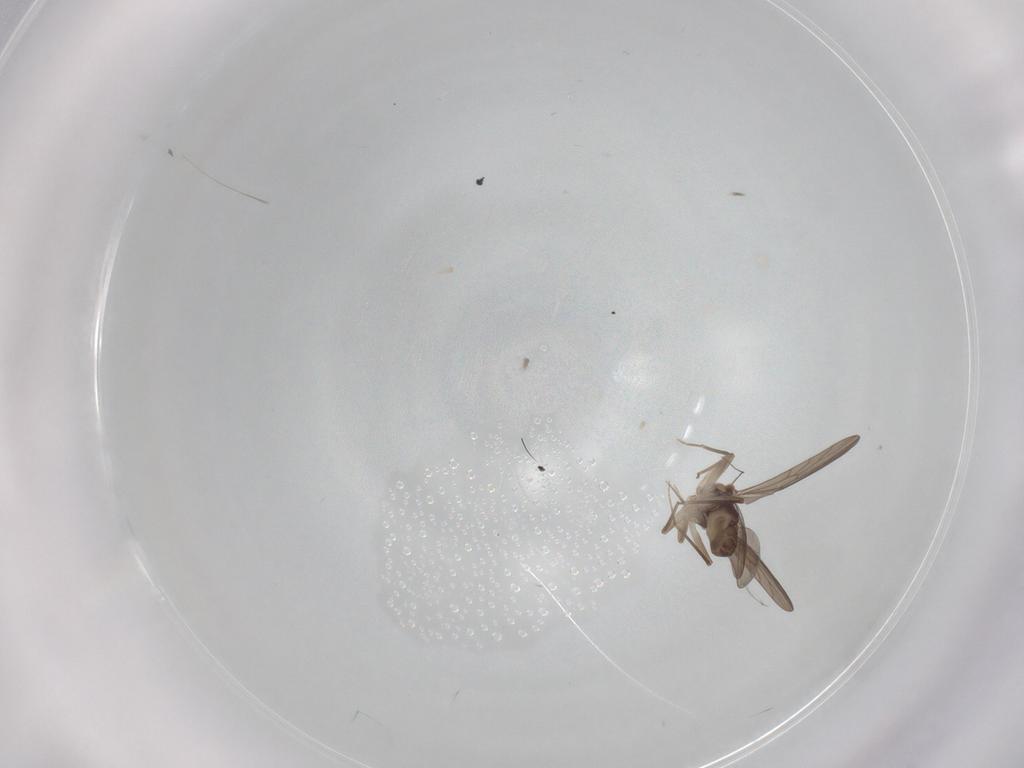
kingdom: Animalia
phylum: Arthropoda
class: Insecta
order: Psocodea
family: Lepidopsocidae
